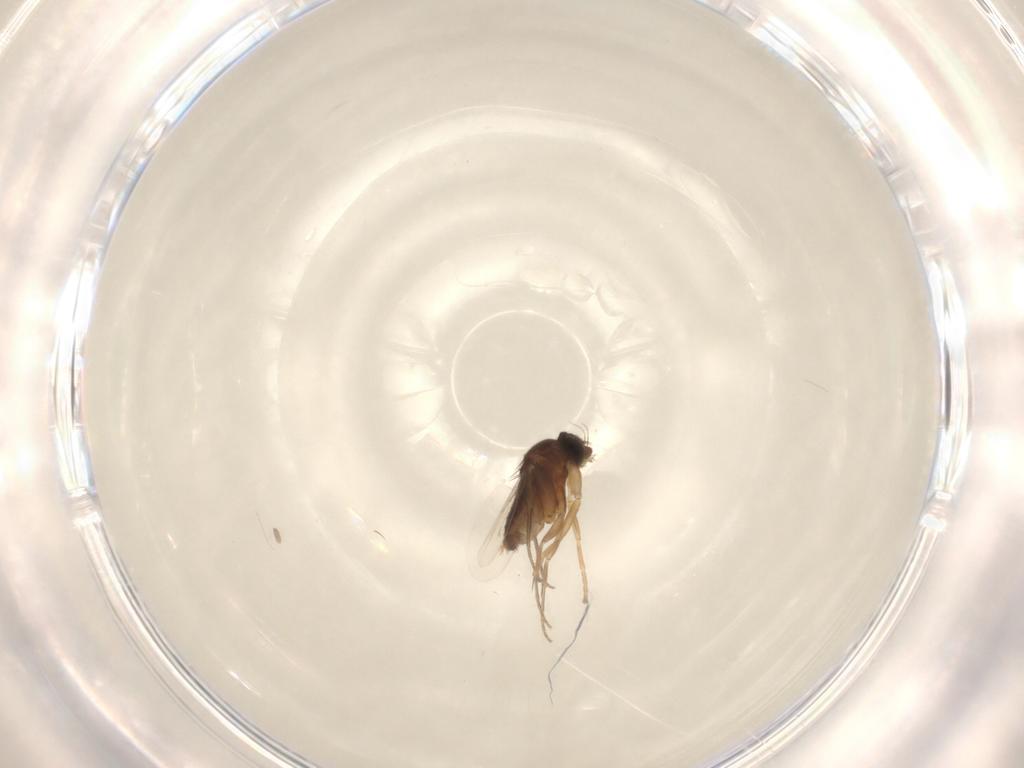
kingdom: Animalia
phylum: Arthropoda
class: Insecta
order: Diptera
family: Phoridae
